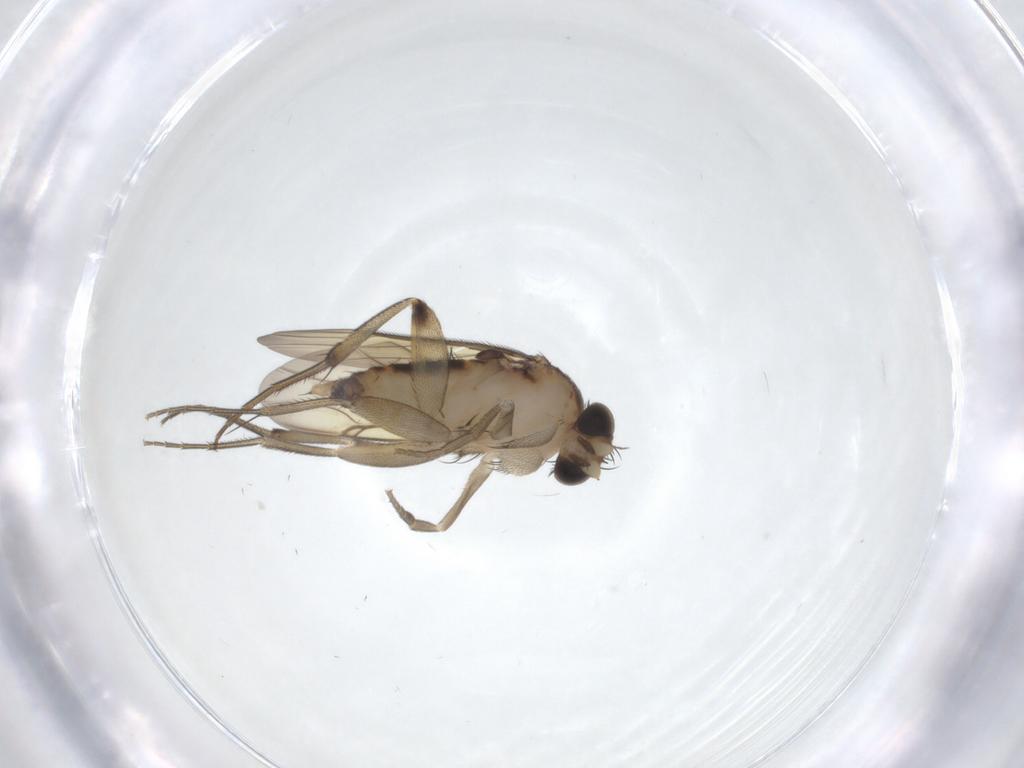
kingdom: Animalia
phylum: Arthropoda
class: Insecta
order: Diptera
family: Phoridae
